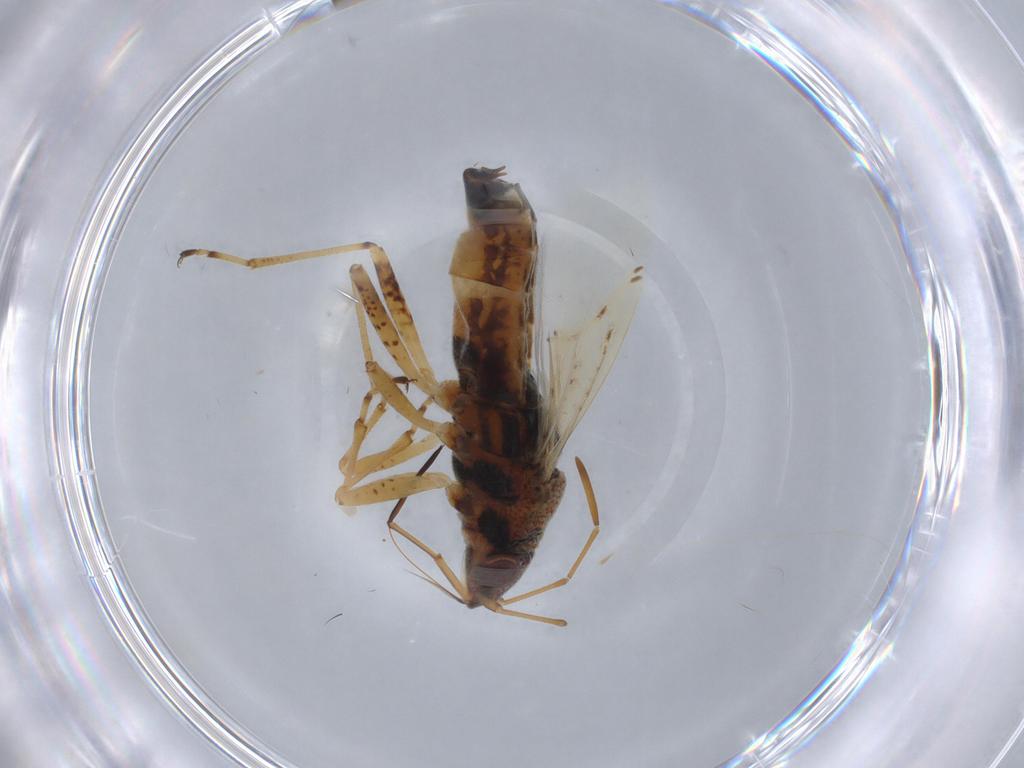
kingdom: Animalia
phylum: Arthropoda
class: Insecta
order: Hemiptera
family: Lygaeidae
